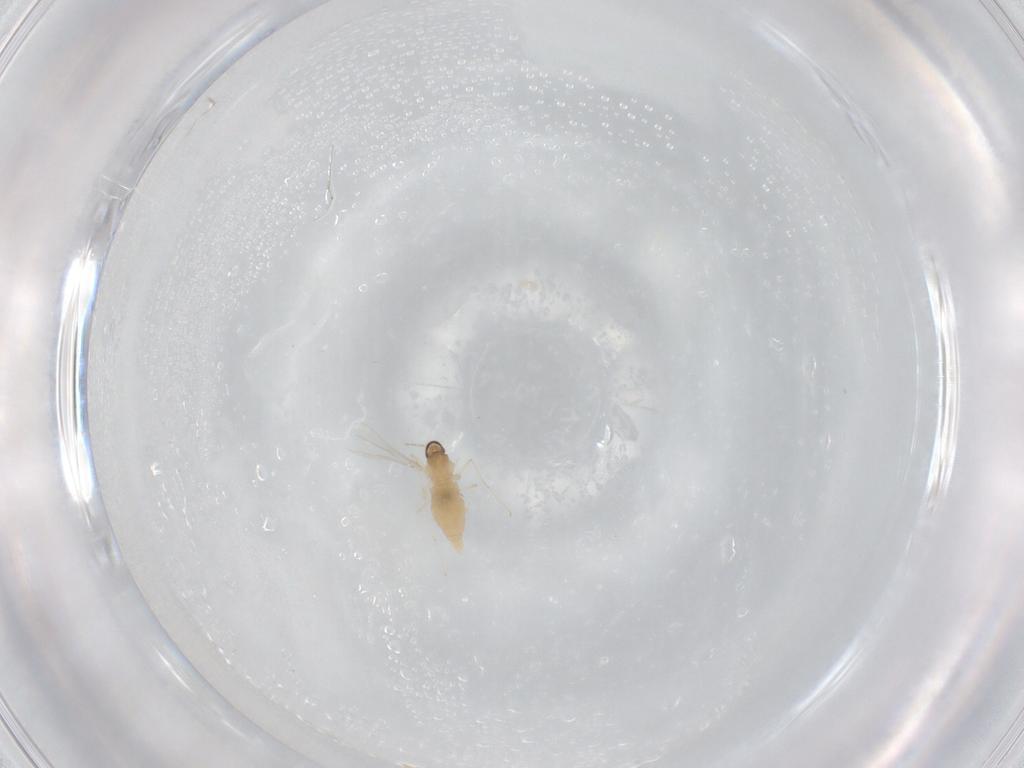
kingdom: Animalia
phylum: Arthropoda
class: Insecta
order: Diptera
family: Cecidomyiidae
